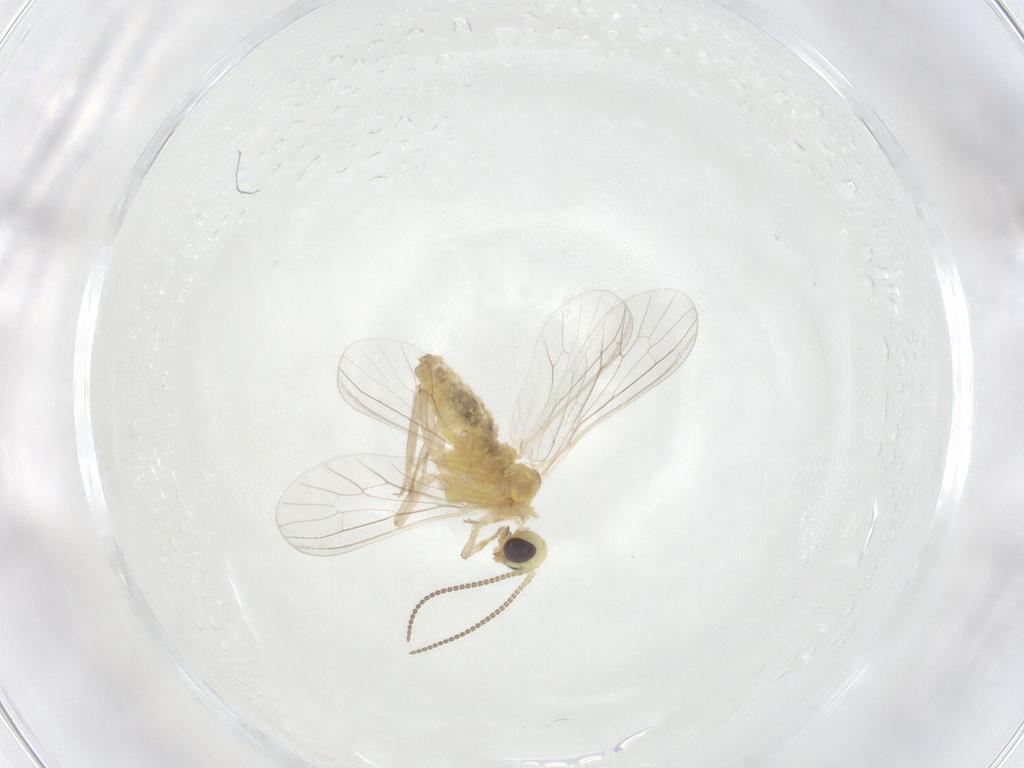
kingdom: Animalia
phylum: Arthropoda
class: Insecta
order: Neuroptera
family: Coniopterygidae
